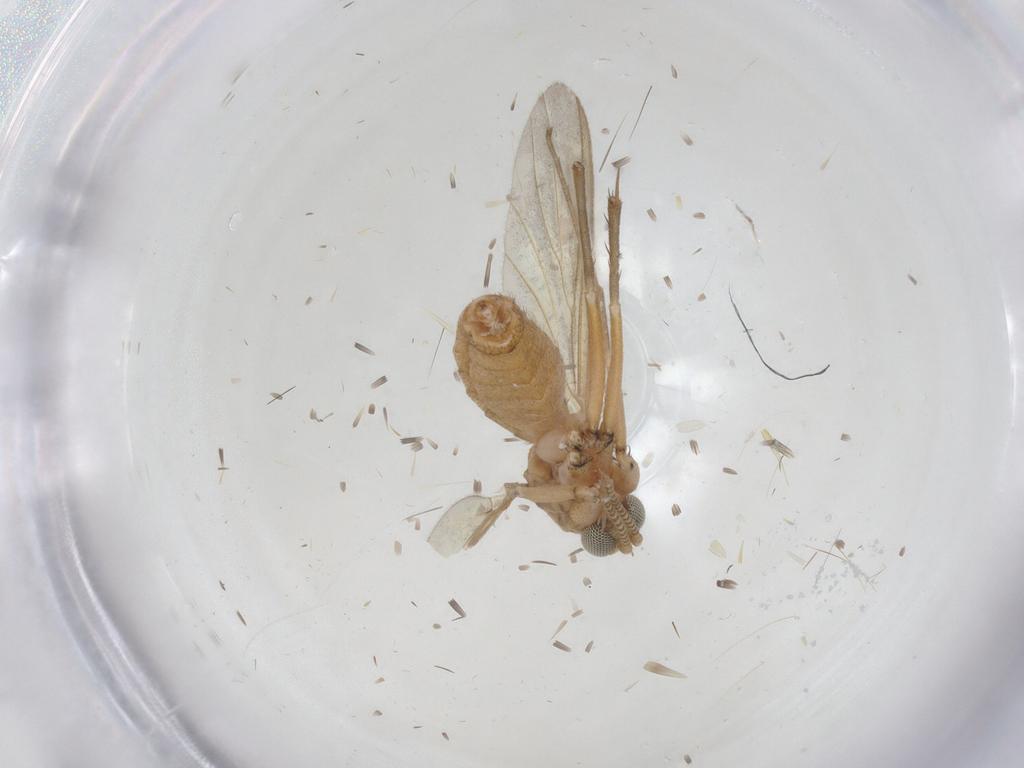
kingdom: Animalia
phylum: Arthropoda
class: Insecta
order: Diptera
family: Mycetophilidae
